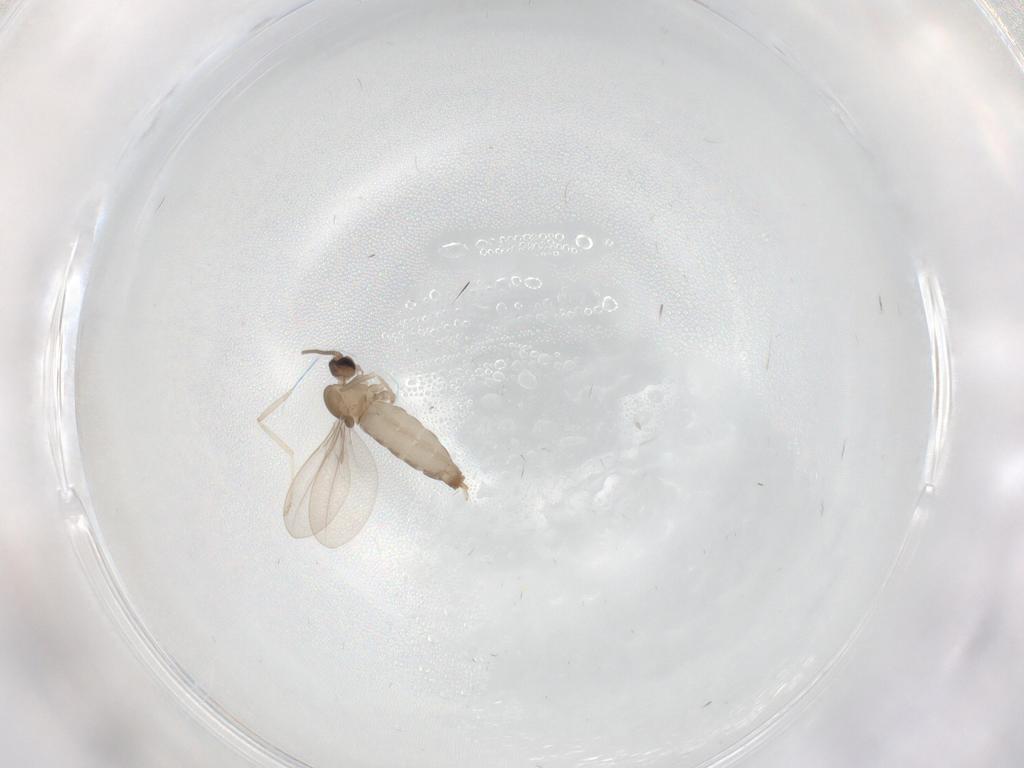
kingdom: Animalia
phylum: Arthropoda
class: Insecta
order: Diptera
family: Cecidomyiidae
